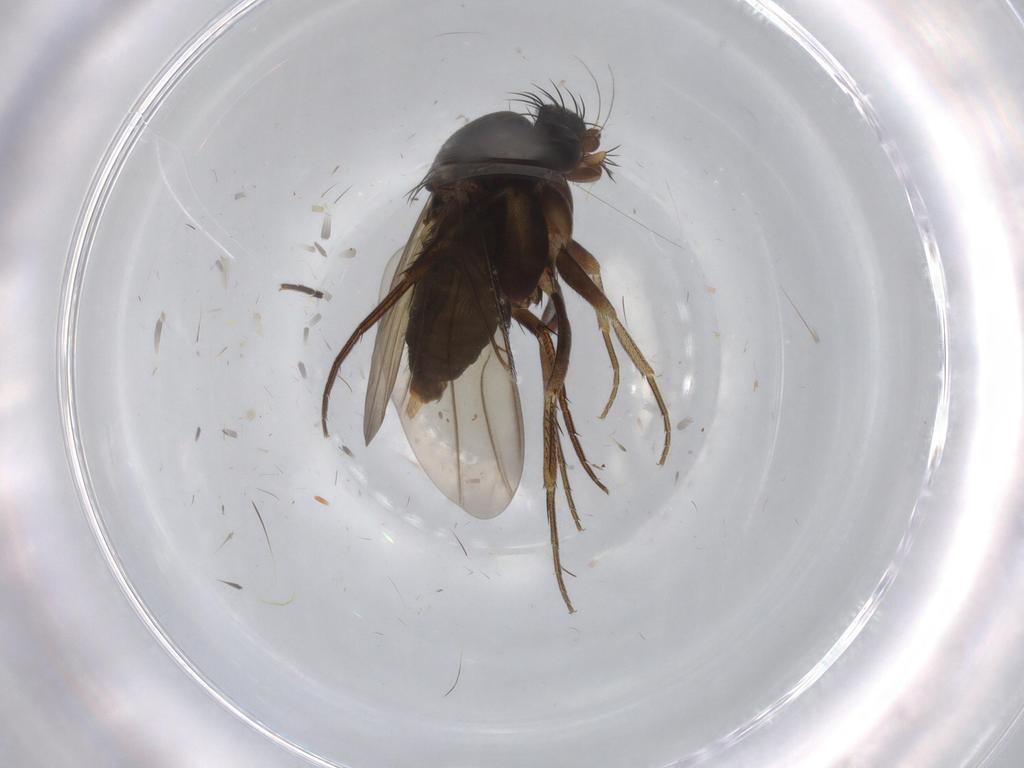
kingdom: Animalia
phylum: Arthropoda
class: Insecta
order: Diptera
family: Phoridae
